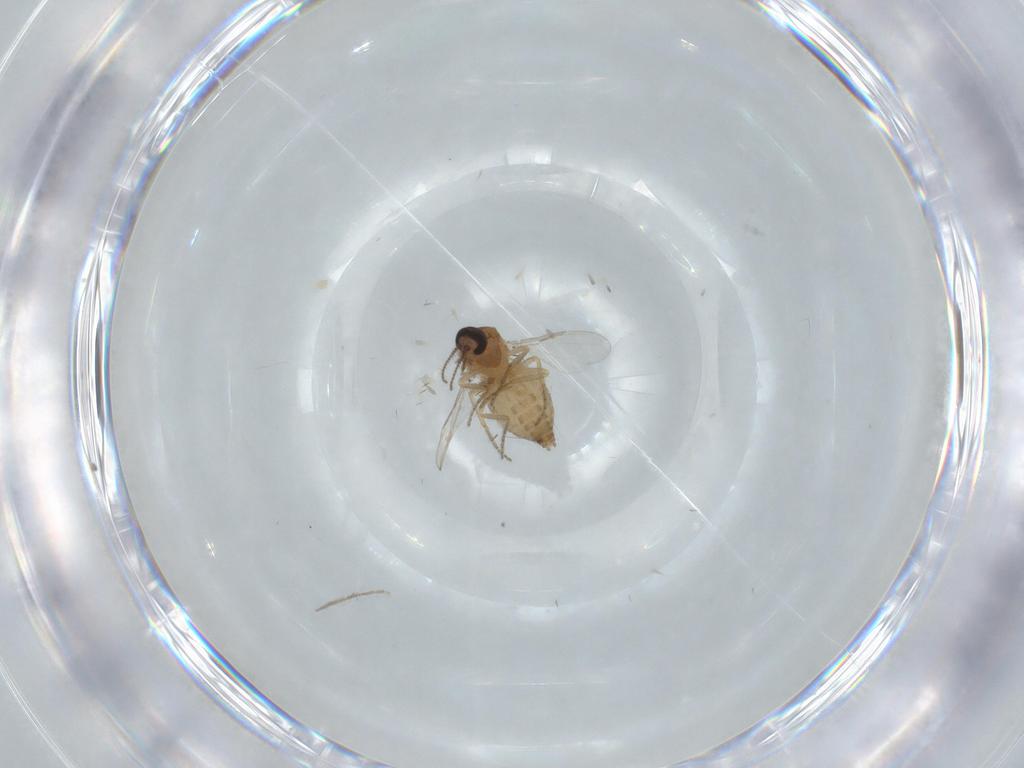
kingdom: Animalia
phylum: Arthropoda
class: Insecta
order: Diptera
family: Ceratopogonidae
